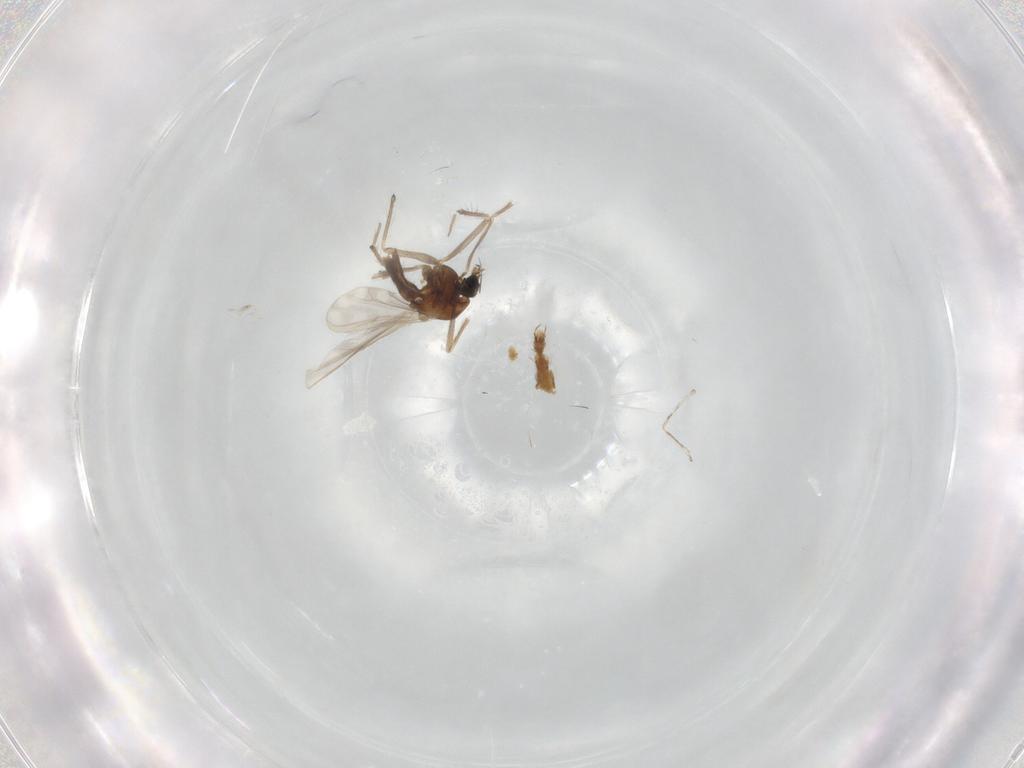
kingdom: Animalia
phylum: Arthropoda
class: Insecta
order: Diptera
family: Chironomidae
